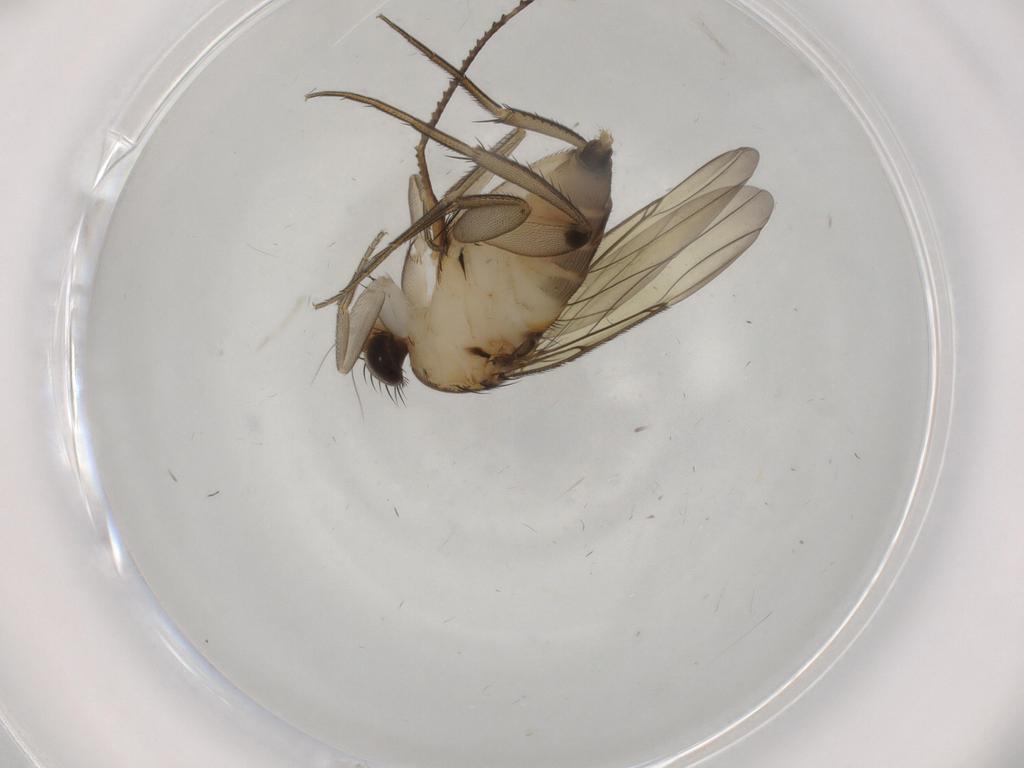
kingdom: Animalia
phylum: Arthropoda
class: Insecta
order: Diptera
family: Phoridae
